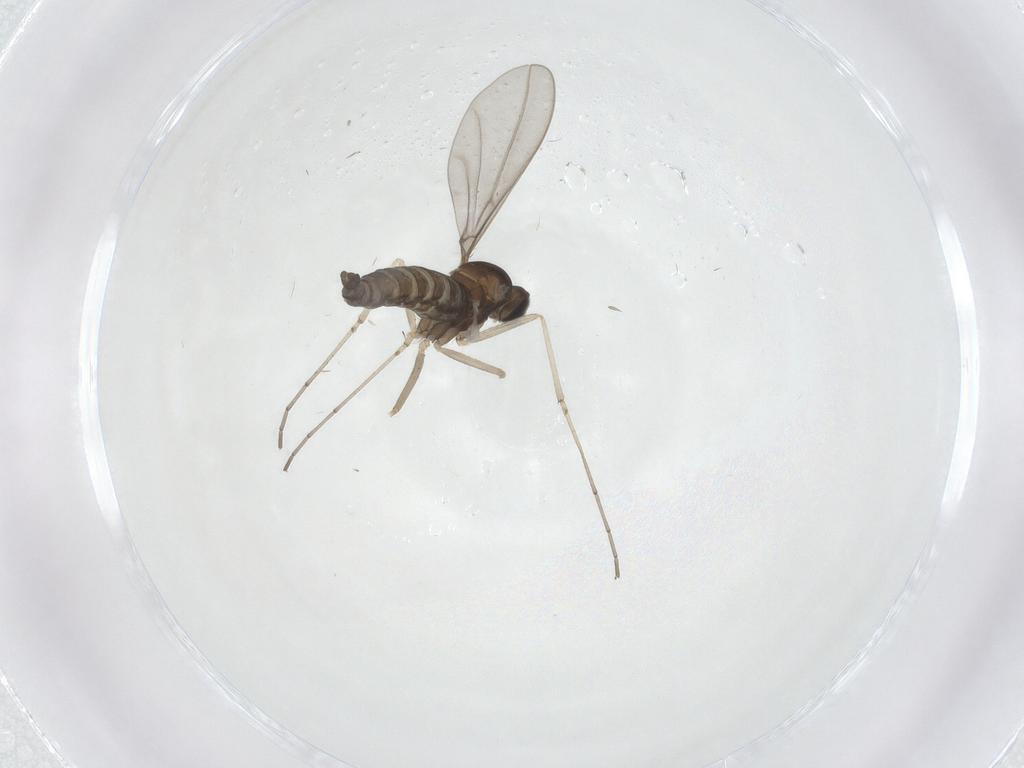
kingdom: Animalia
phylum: Arthropoda
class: Insecta
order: Diptera
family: Cecidomyiidae
